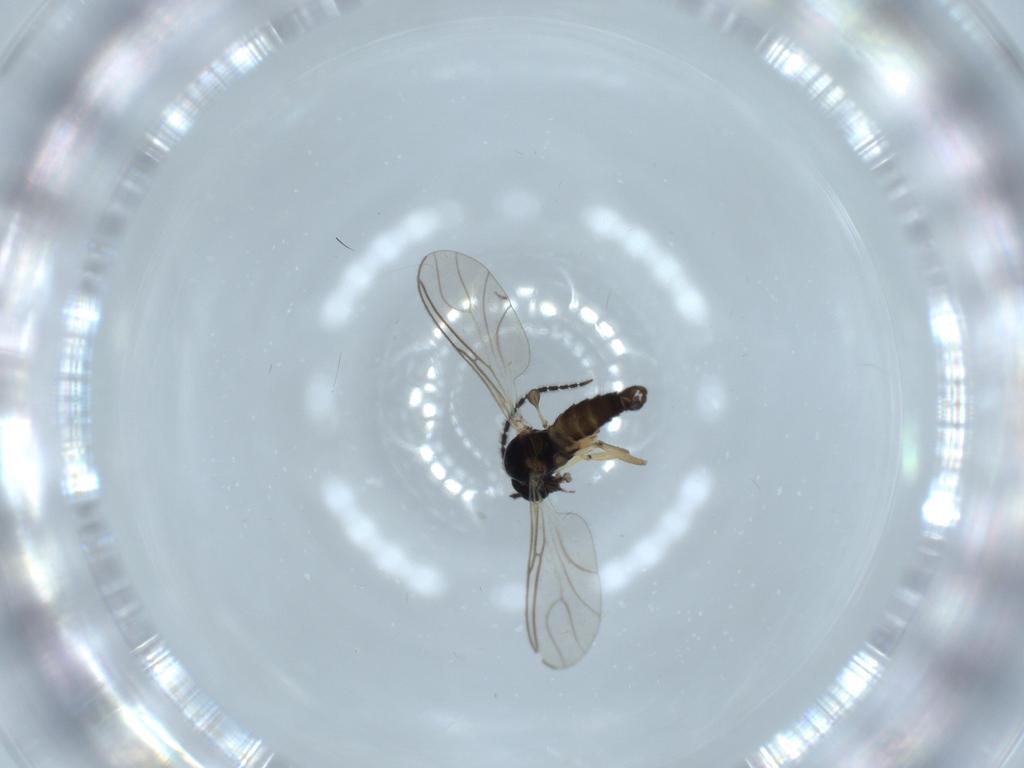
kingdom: Animalia
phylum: Arthropoda
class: Insecta
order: Diptera
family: Sciaridae
